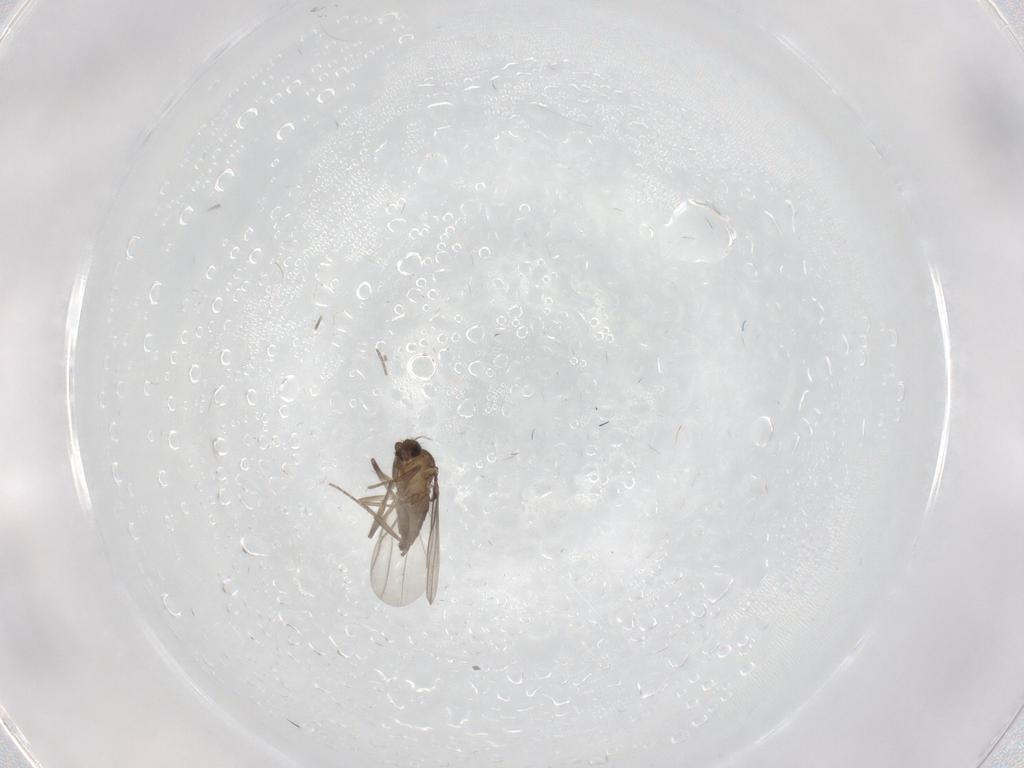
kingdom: Animalia
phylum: Arthropoda
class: Insecta
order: Diptera
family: Phoridae
